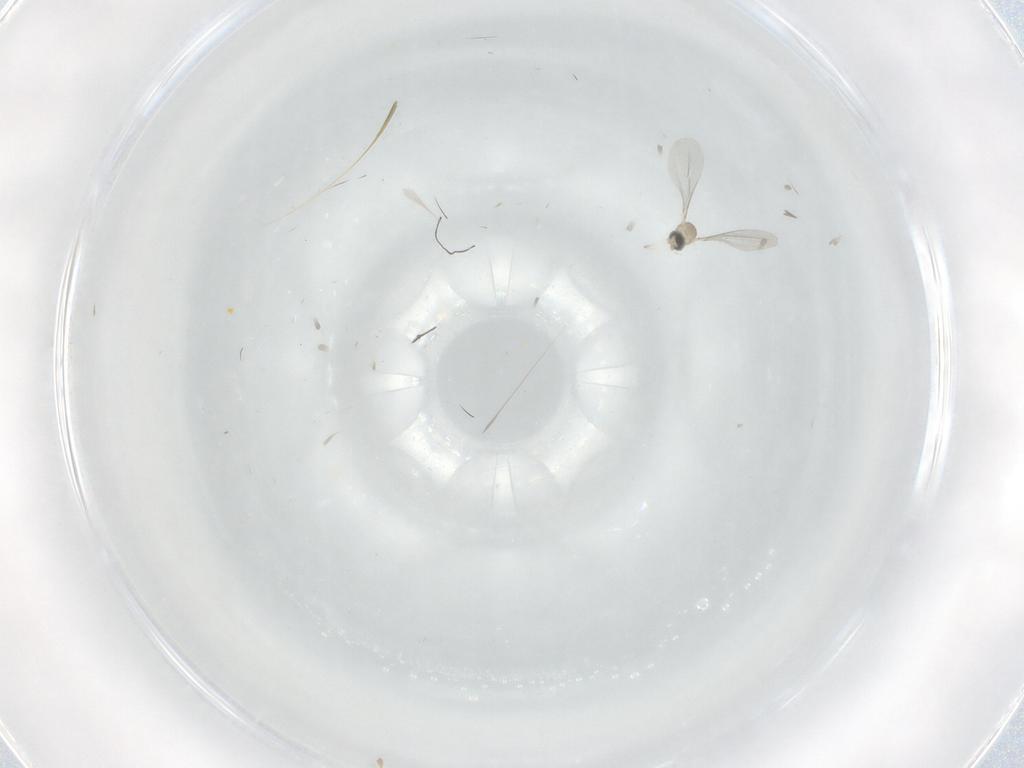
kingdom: Animalia
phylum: Arthropoda
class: Insecta
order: Diptera
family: Cecidomyiidae
